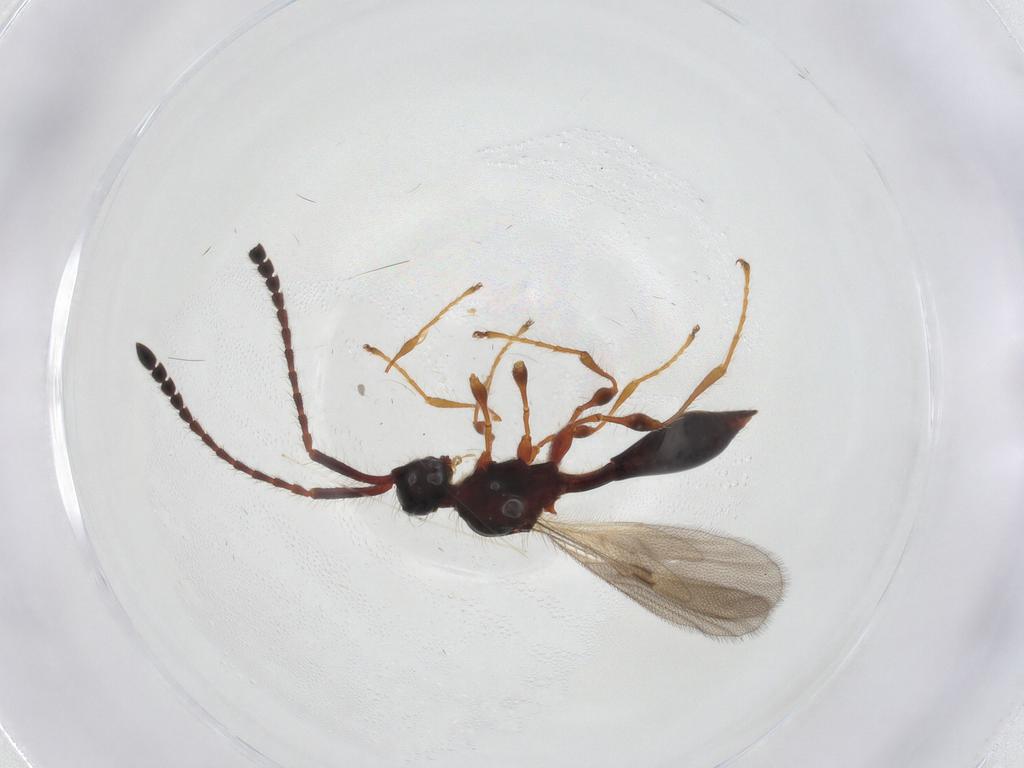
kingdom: Animalia
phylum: Arthropoda
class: Insecta
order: Hymenoptera
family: Diapriidae
